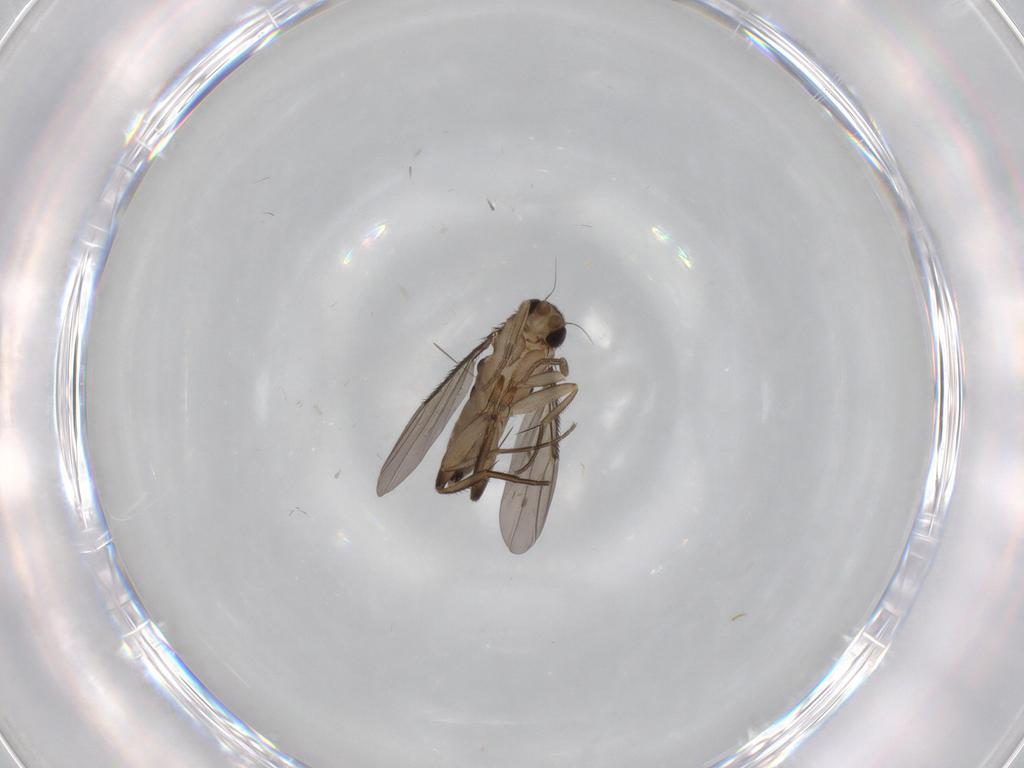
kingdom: Animalia
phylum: Arthropoda
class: Insecta
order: Diptera
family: Phoridae
